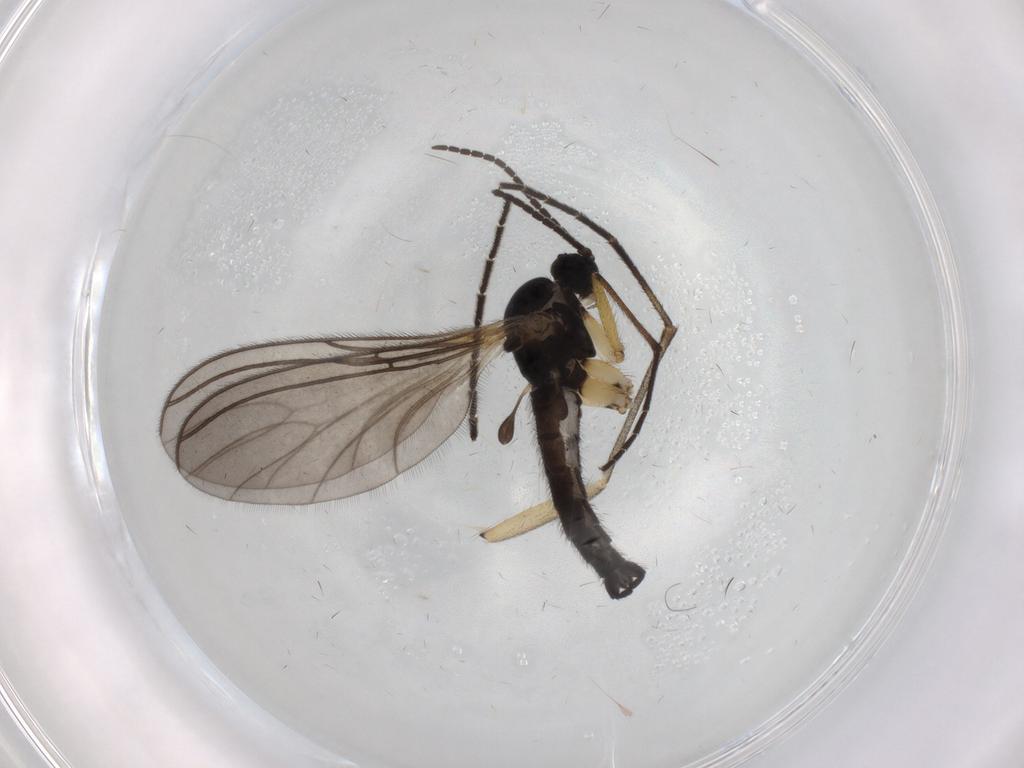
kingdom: Animalia
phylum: Arthropoda
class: Insecta
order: Diptera
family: Sciaridae
